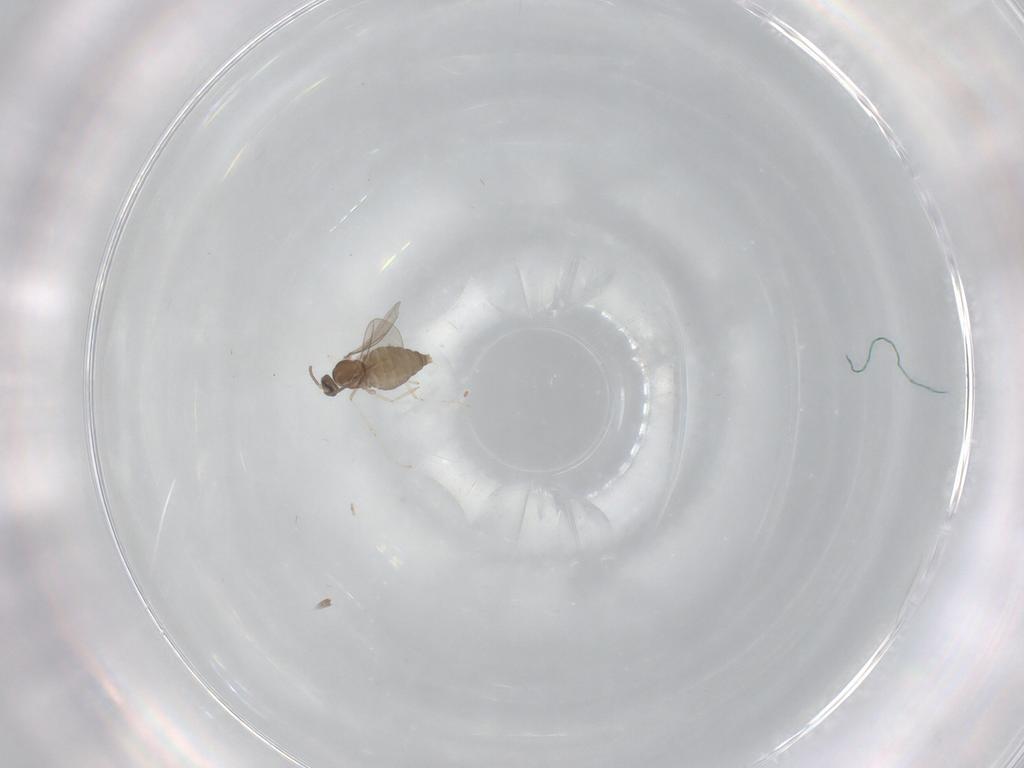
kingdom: Animalia
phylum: Arthropoda
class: Insecta
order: Diptera
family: Cecidomyiidae
